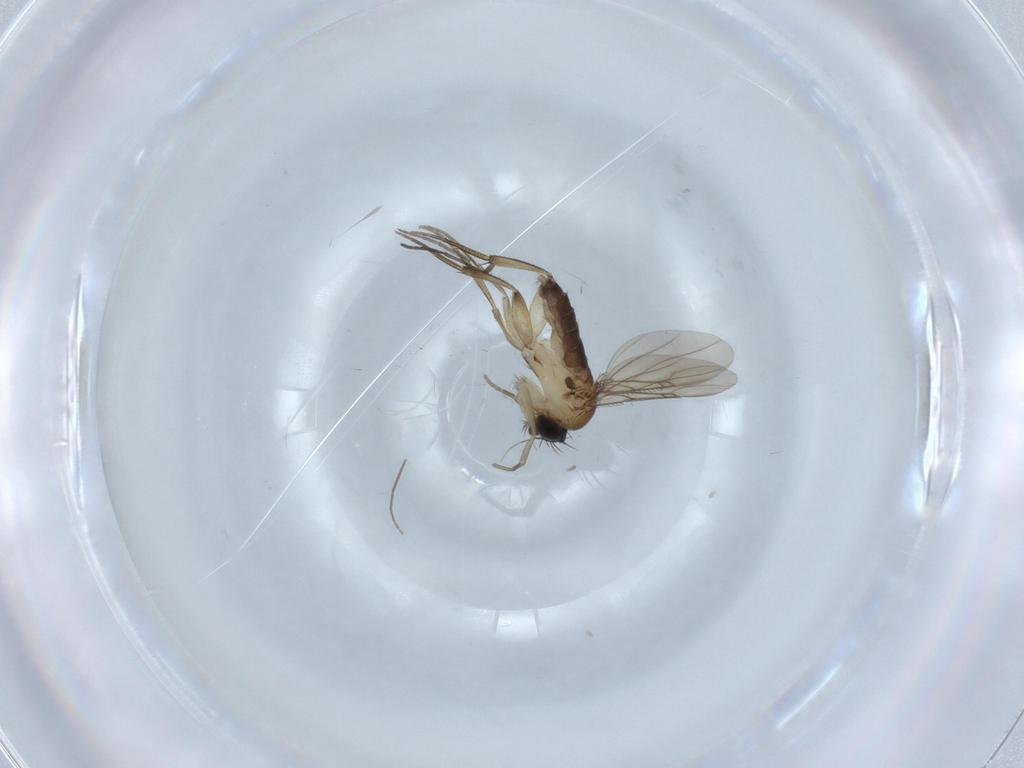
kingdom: Animalia
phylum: Arthropoda
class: Insecta
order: Diptera
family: Phoridae
